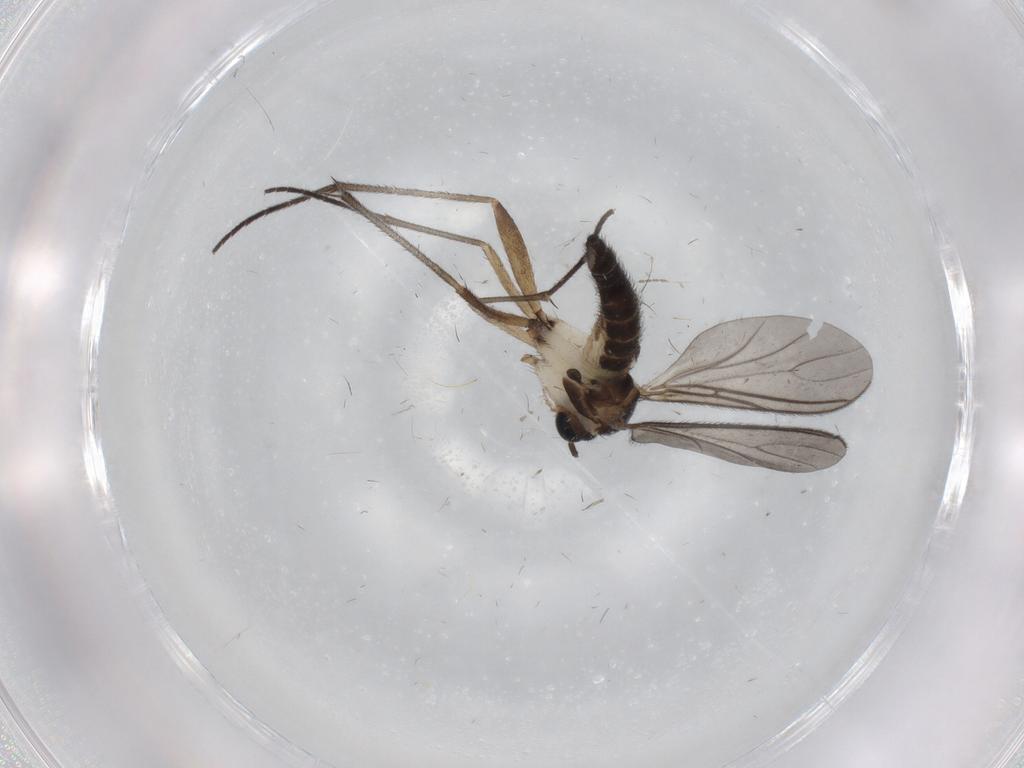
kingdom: Animalia
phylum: Arthropoda
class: Insecta
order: Diptera
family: Sciaridae
